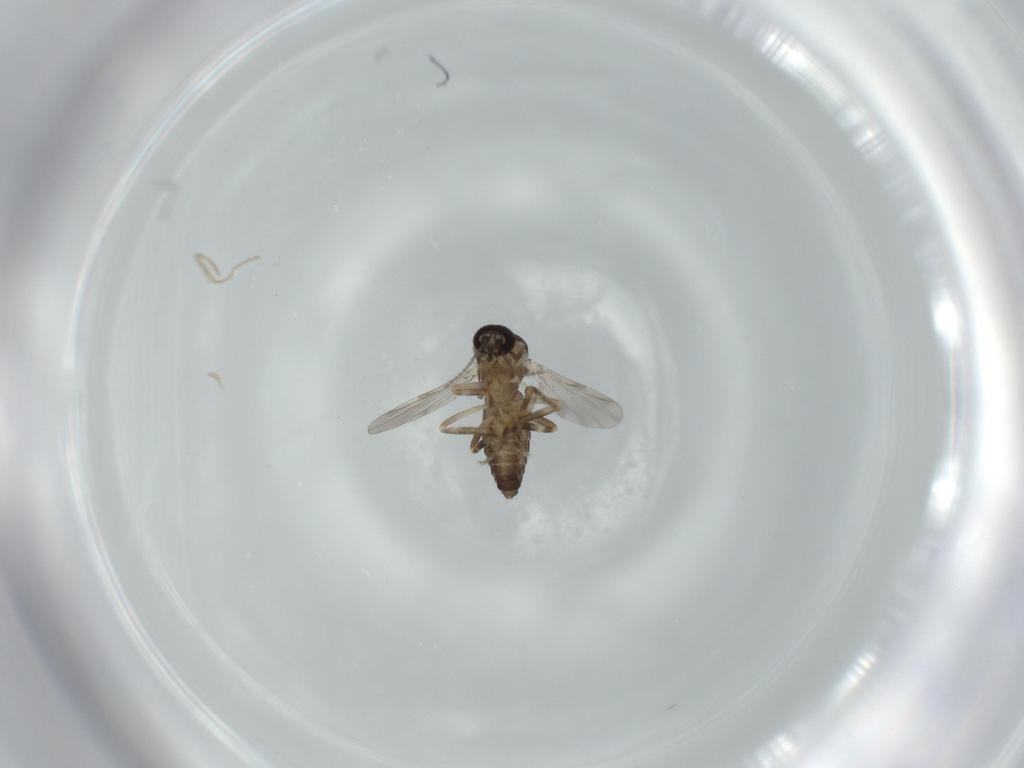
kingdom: Animalia
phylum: Arthropoda
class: Insecta
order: Diptera
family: Ceratopogonidae
